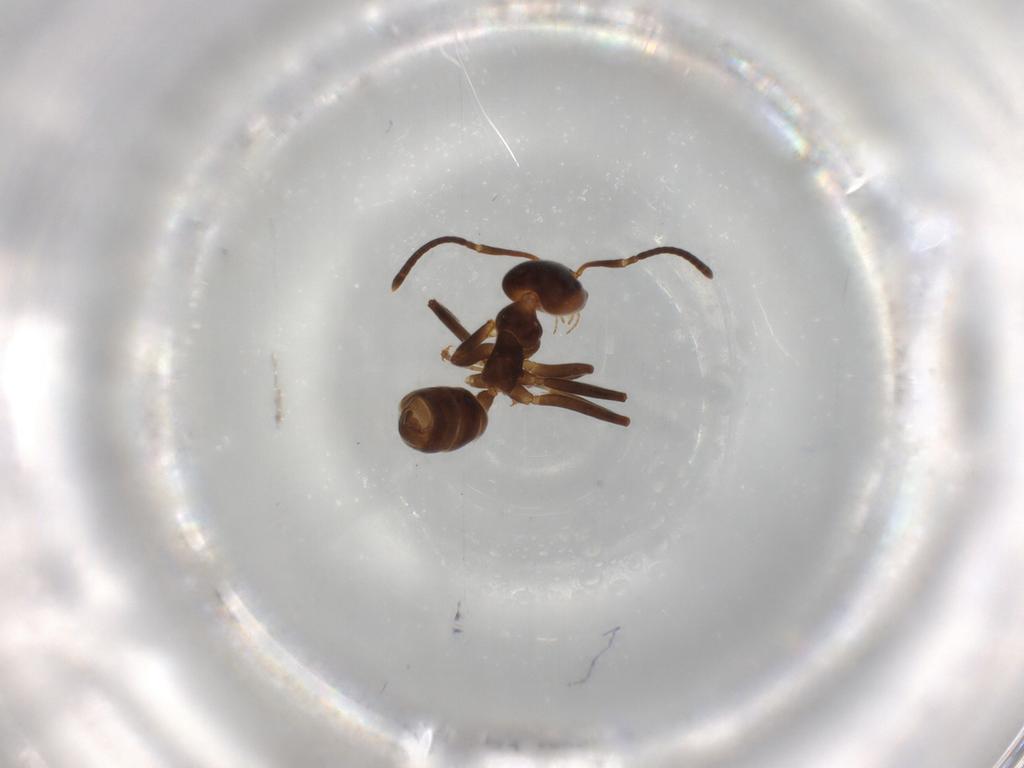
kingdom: Animalia
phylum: Arthropoda
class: Insecta
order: Hymenoptera
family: Formicidae
